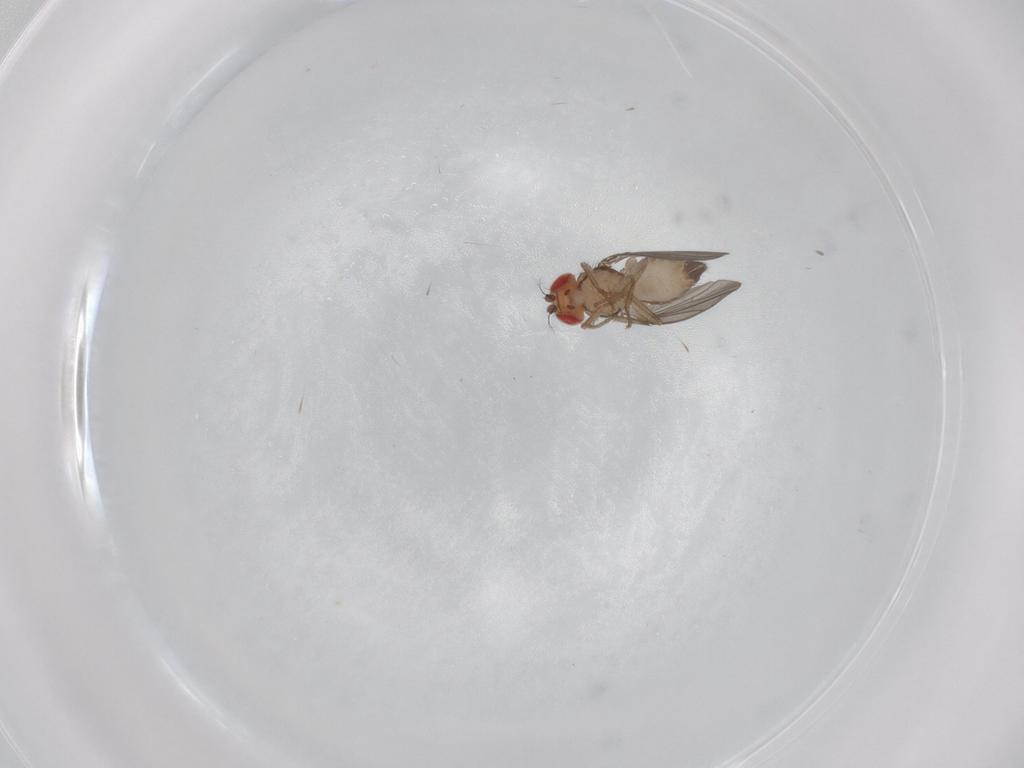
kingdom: Animalia
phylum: Arthropoda
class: Insecta
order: Diptera
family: Drosophilidae
